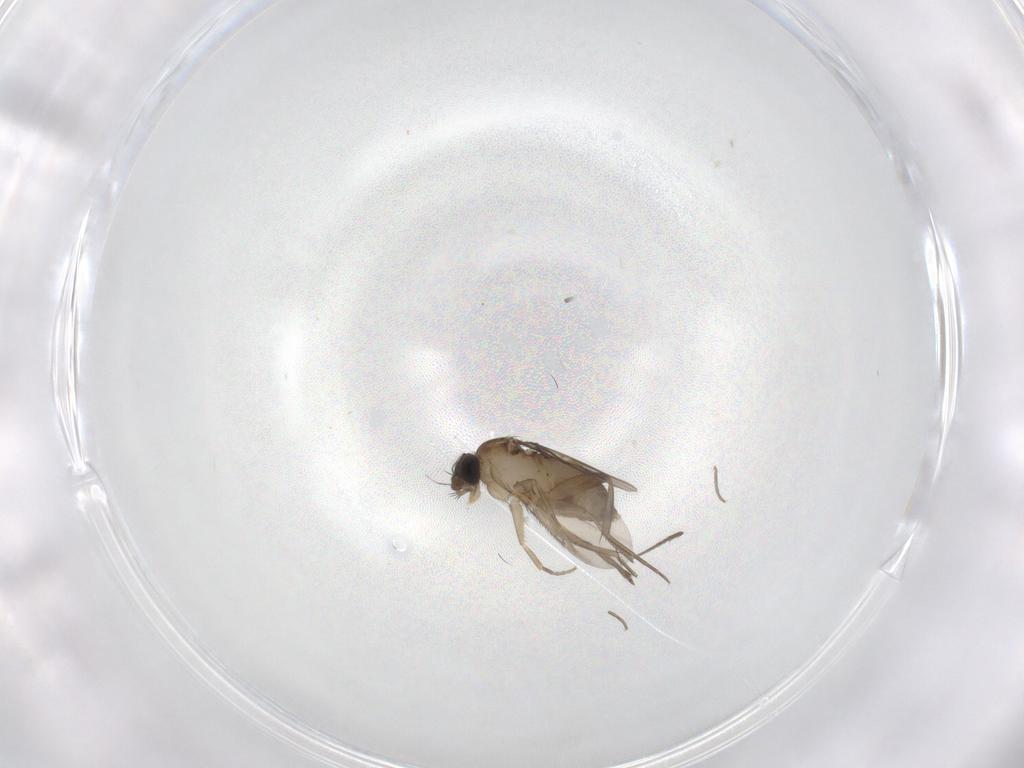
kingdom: Animalia
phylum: Arthropoda
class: Insecta
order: Diptera
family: Phoridae
